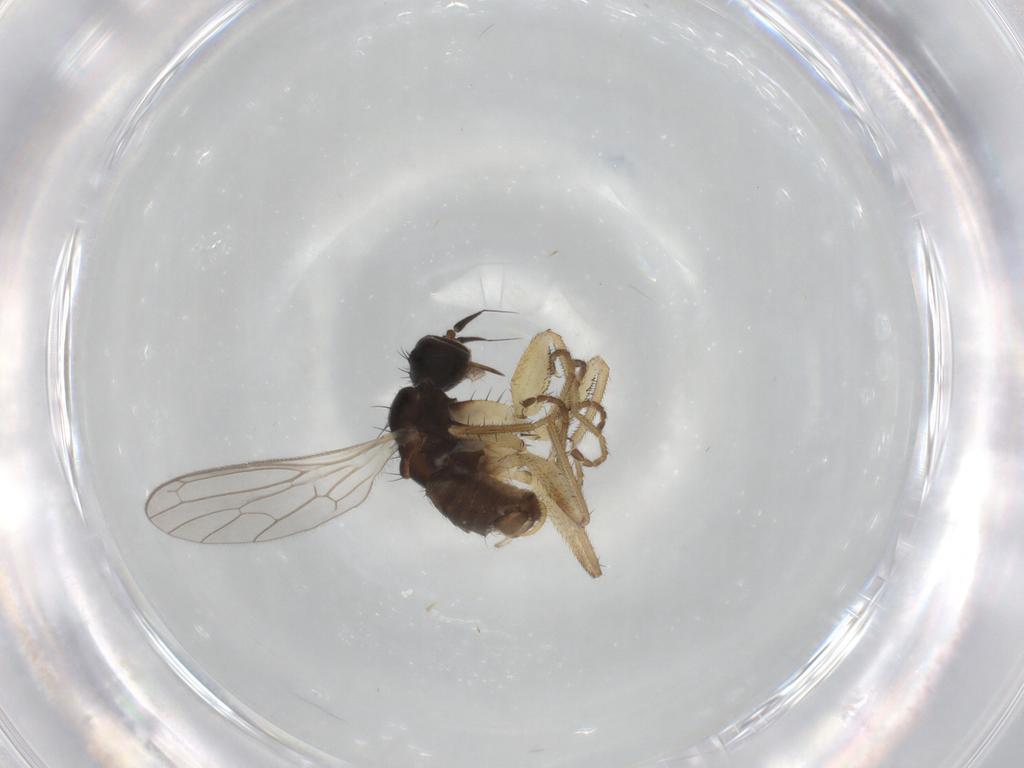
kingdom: Animalia
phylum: Arthropoda
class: Insecta
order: Diptera
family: Empididae
